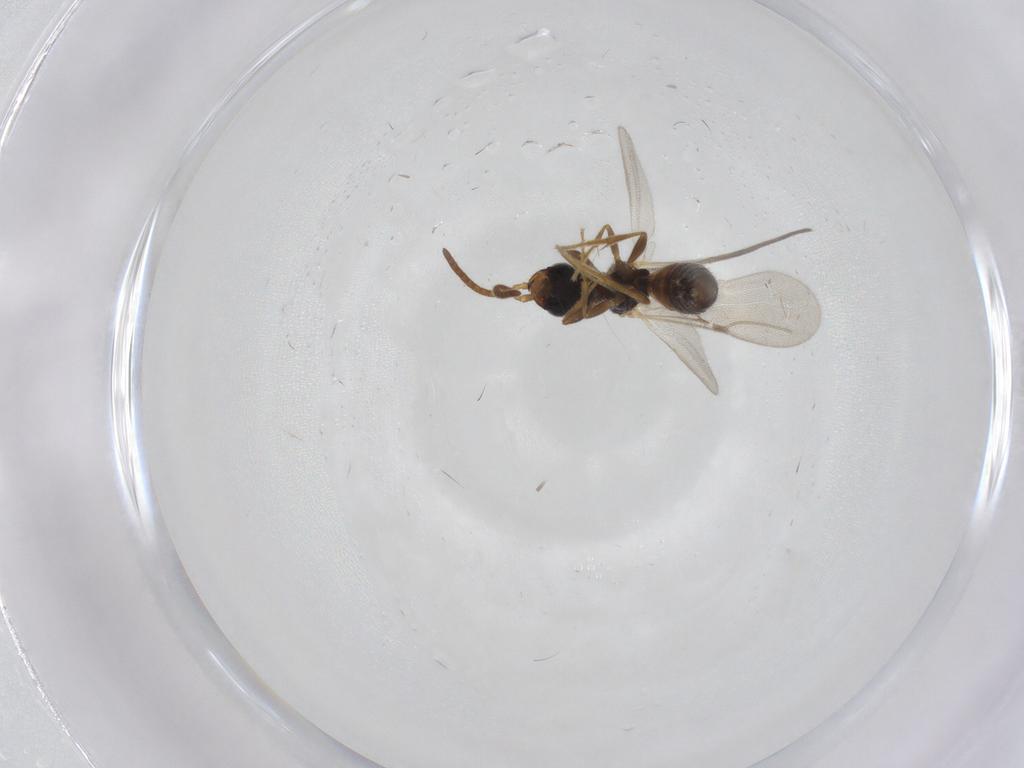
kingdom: Animalia
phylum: Arthropoda
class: Insecta
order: Hymenoptera
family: Bethylidae
